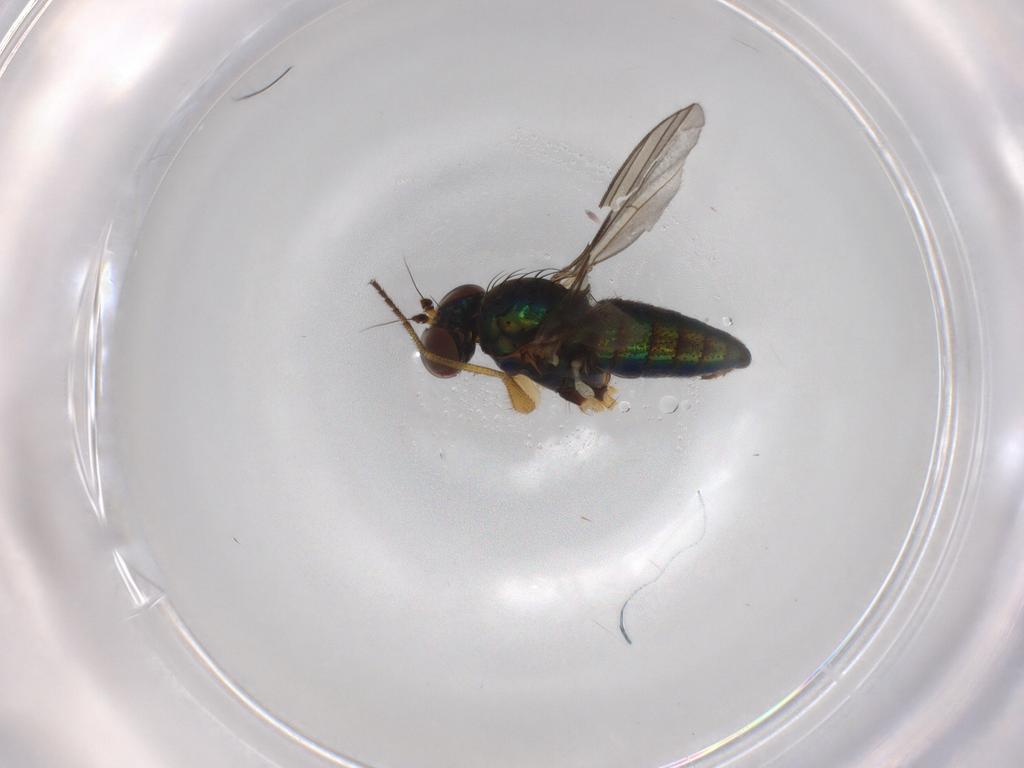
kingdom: Animalia
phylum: Arthropoda
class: Insecta
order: Diptera
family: Dolichopodidae
